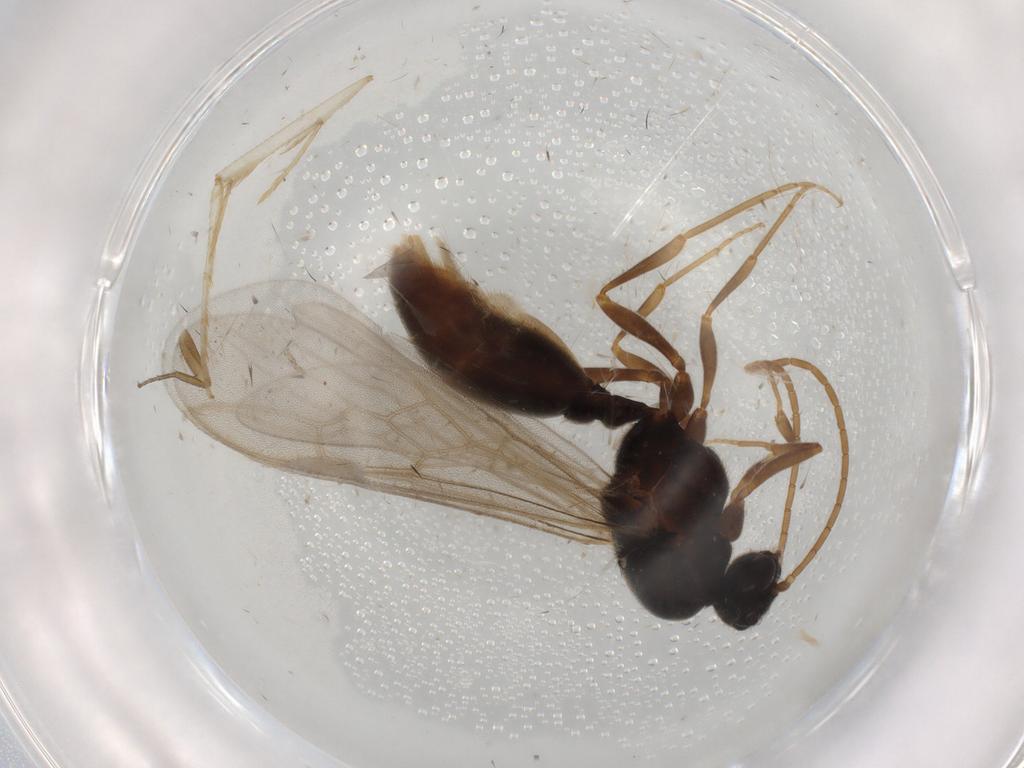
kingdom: Animalia
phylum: Arthropoda
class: Insecta
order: Hymenoptera
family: Formicidae
